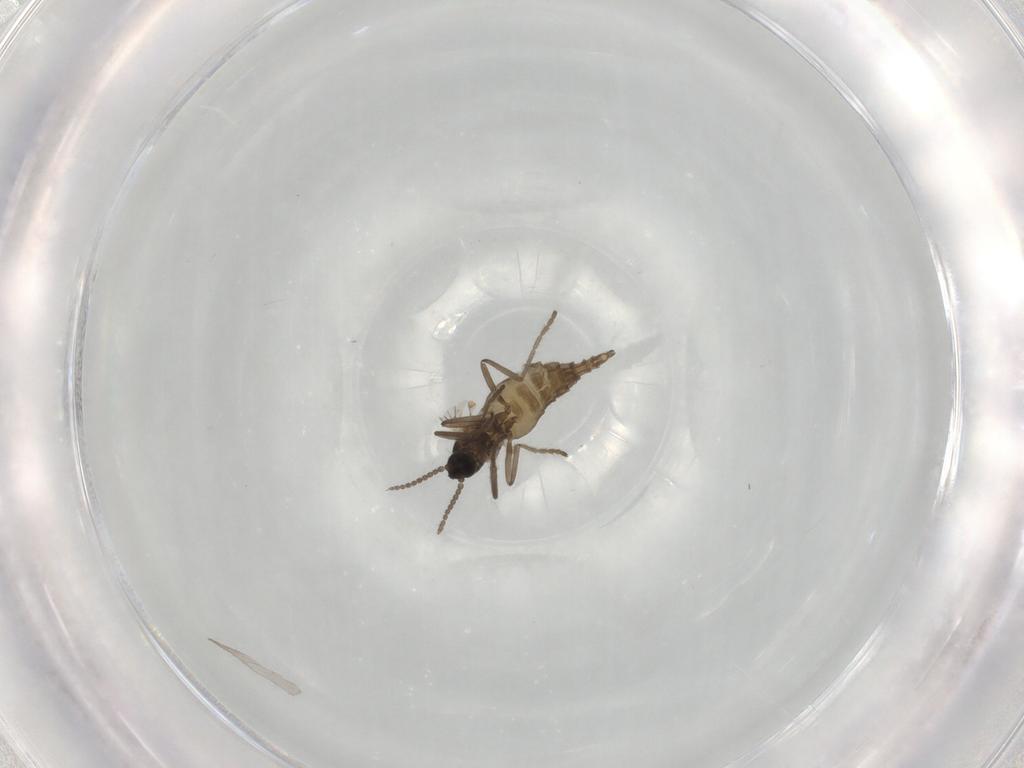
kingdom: Animalia
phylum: Arthropoda
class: Insecta
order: Diptera
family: Cecidomyiidae
